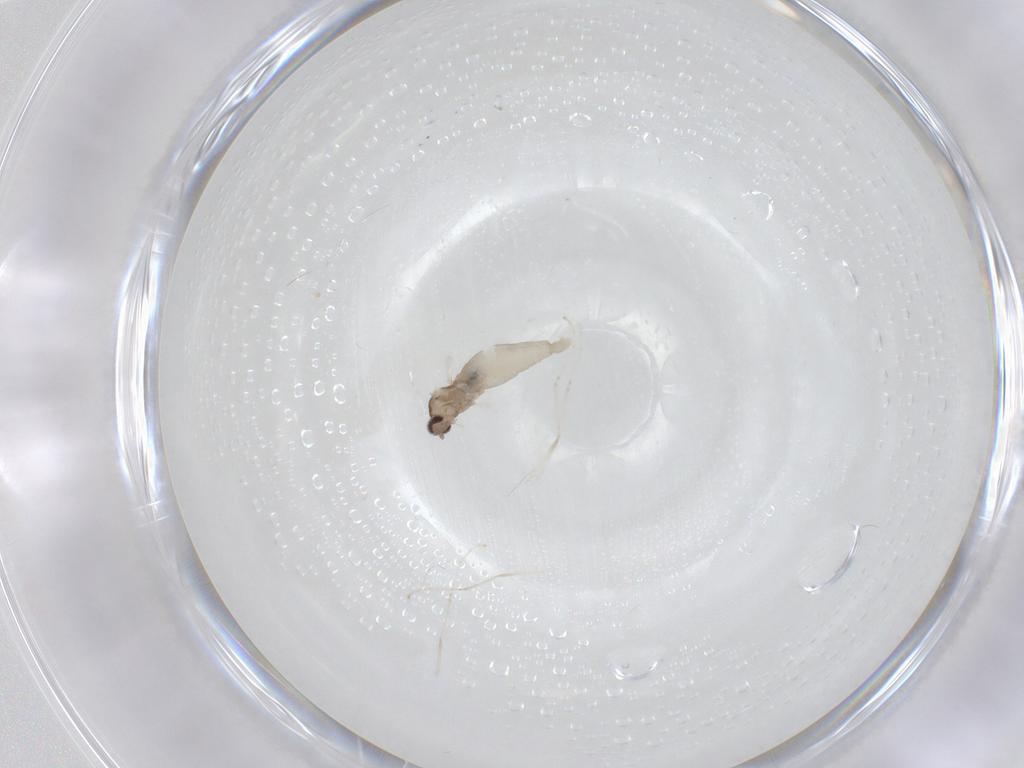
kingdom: Animalia
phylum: Arthropoda
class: Insecta
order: Diptera
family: Cecidomyiidae
